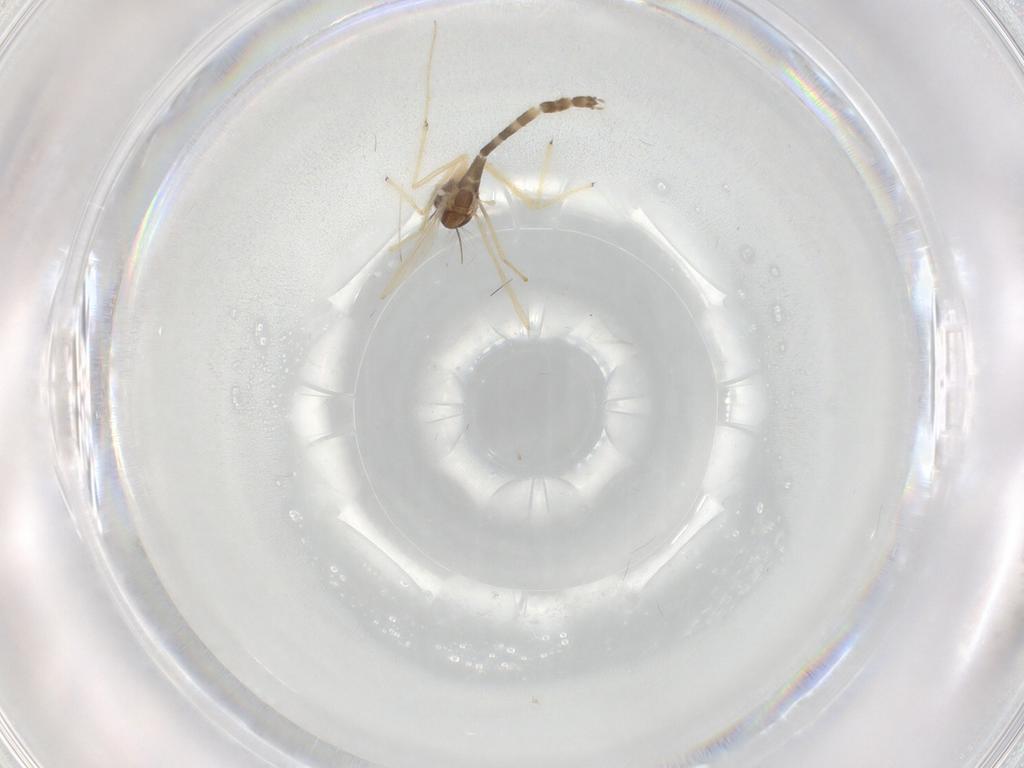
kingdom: Animalia
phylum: Arthropoda
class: Insecta
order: Diptera
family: Chironomidae
